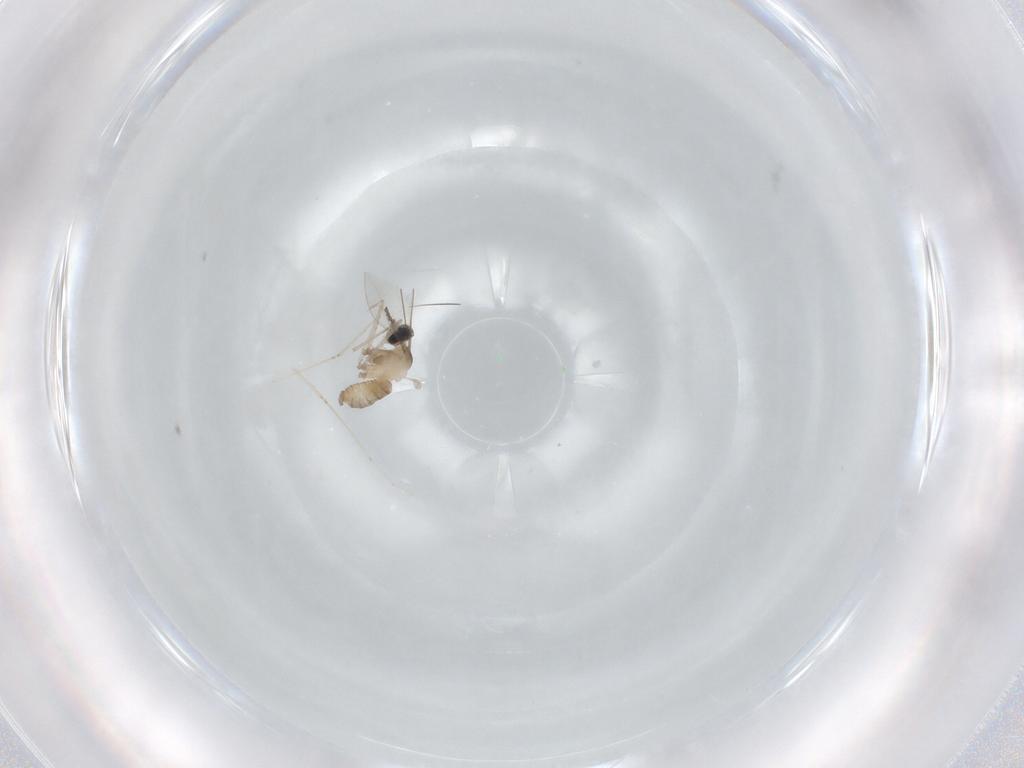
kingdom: Animalia
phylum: Arthropoda
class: Insecta
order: Diptera
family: Cecidomyiidae
